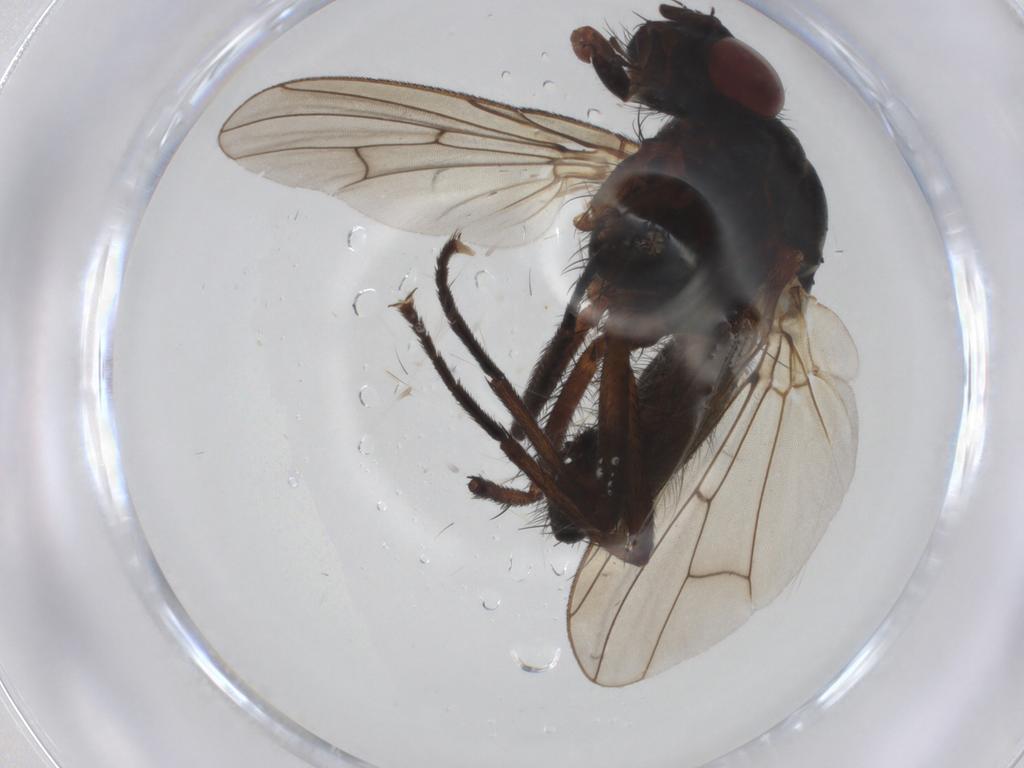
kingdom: Animalia
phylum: Arthropoda
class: Insecta
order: Diptera
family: Anthomyiidae
